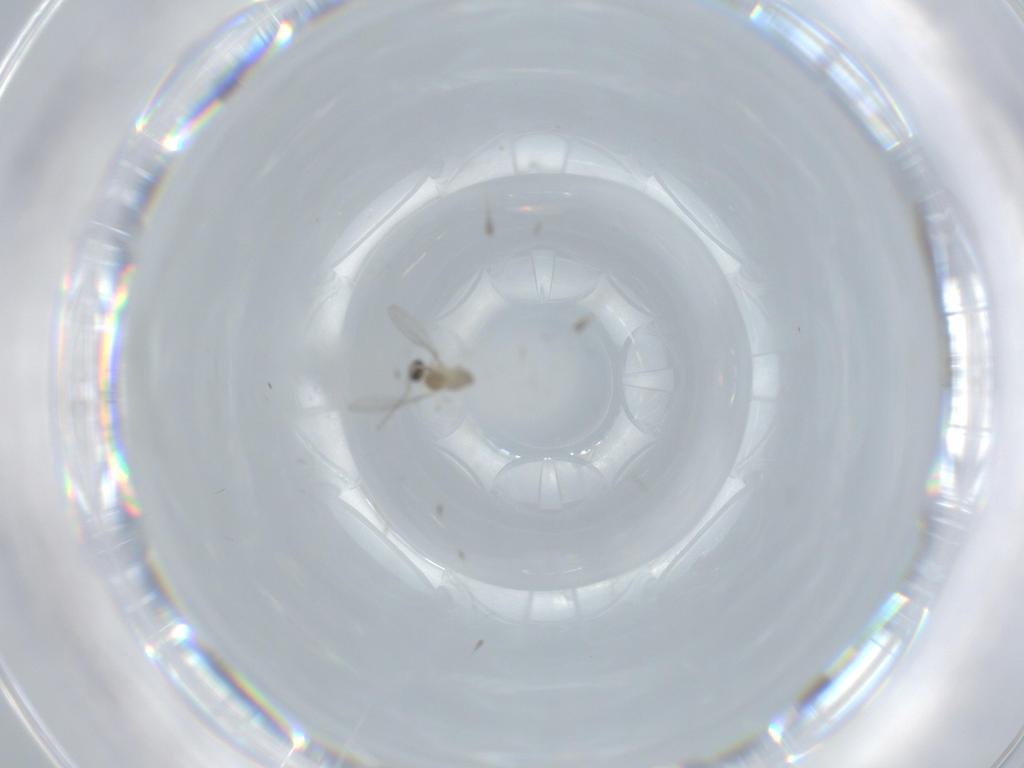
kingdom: Animalia
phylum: Arthropoda
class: Insecta
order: Diptera
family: Cecidomyiidae
